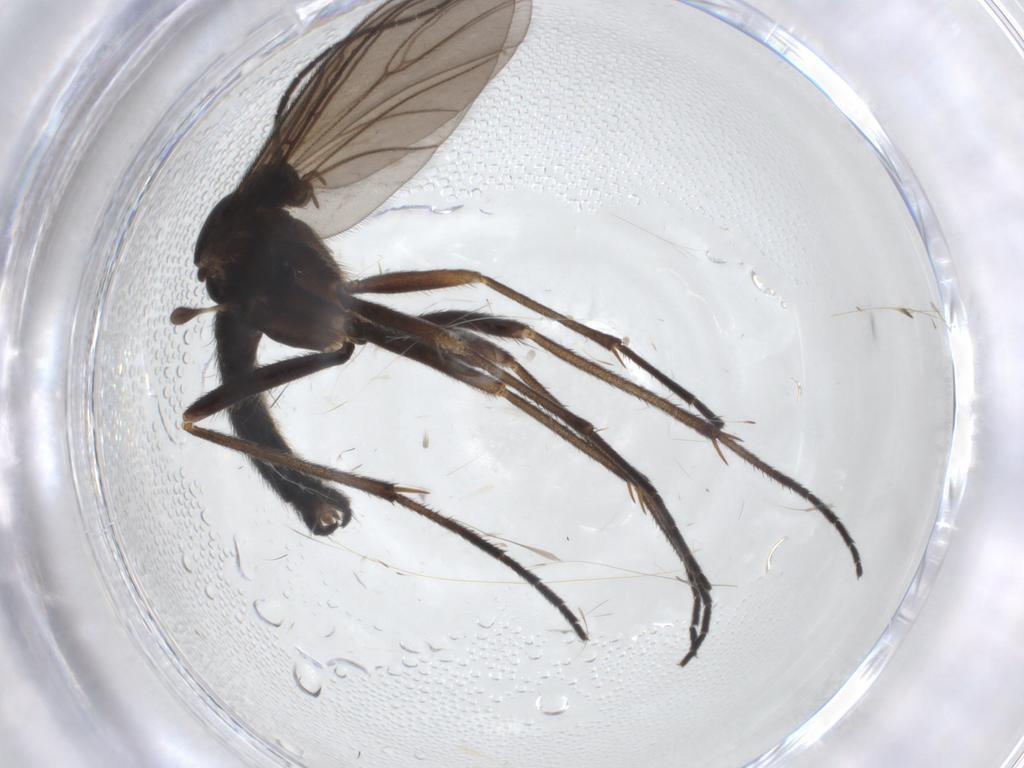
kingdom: Animalia
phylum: Arthropoda
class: Insecta
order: Diptera
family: Sciaridae
